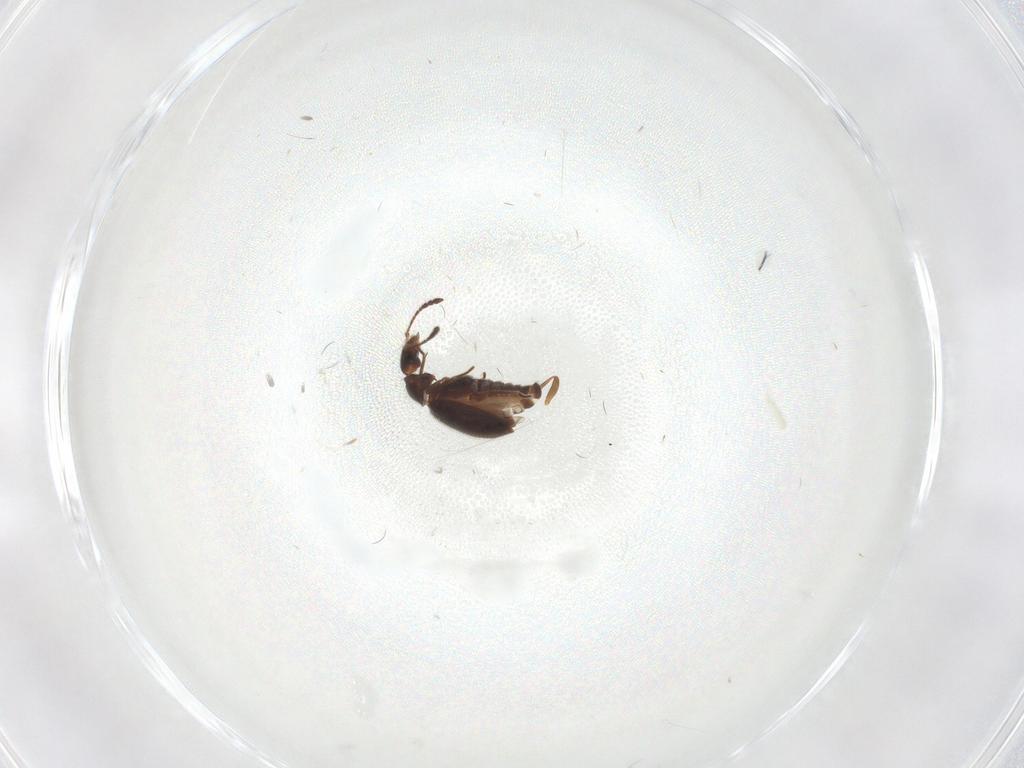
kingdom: Animalia
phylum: Arthropoda
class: Insecta
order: Coleoptera
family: Cryptophagidae
